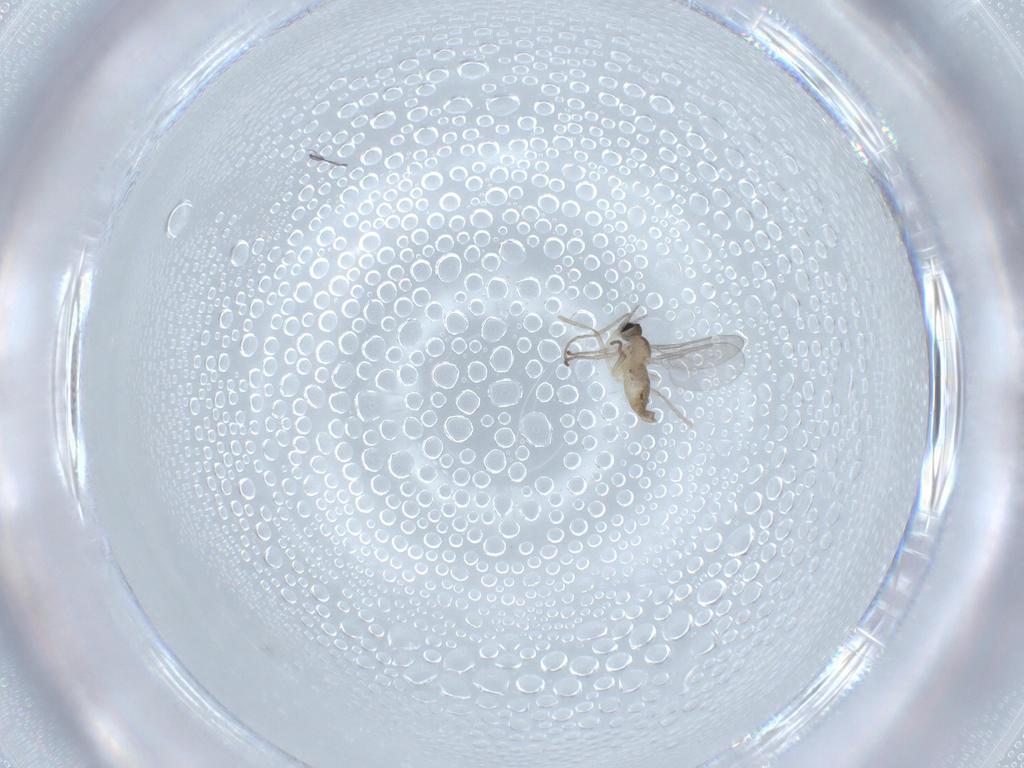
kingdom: Animalia
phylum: Arthropoda
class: Insecta
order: Diptera
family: Cecidomyiidae
